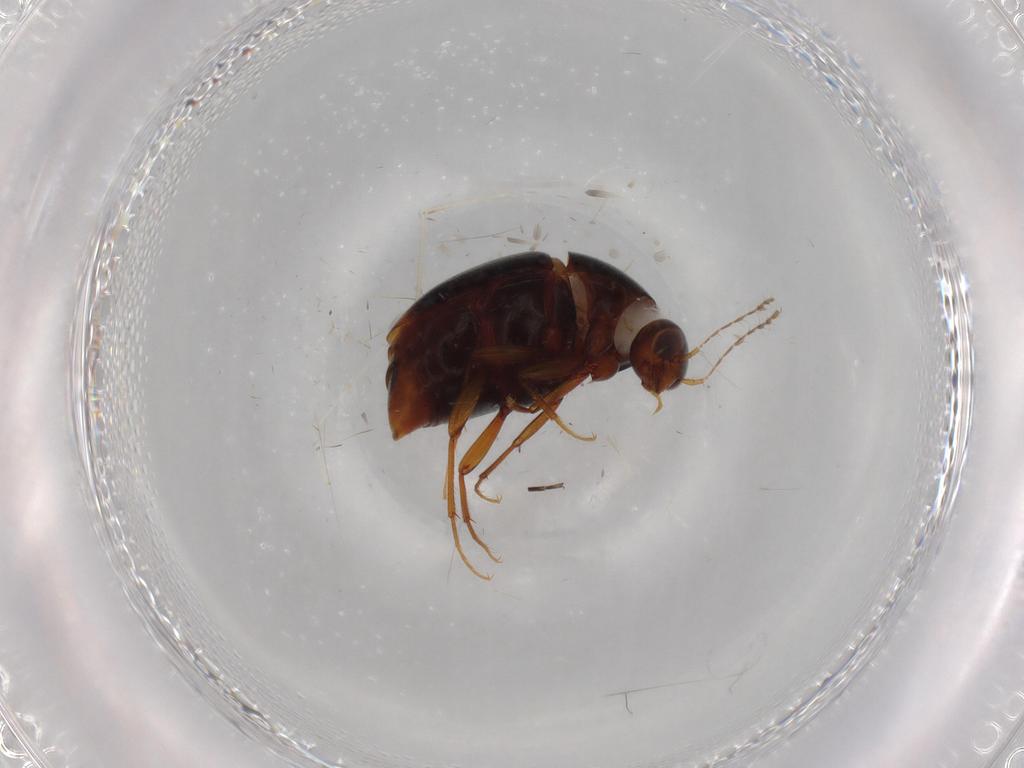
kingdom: Animalia
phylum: Arthropoda
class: Insecta
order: Coleoptera
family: Staphylinidae
